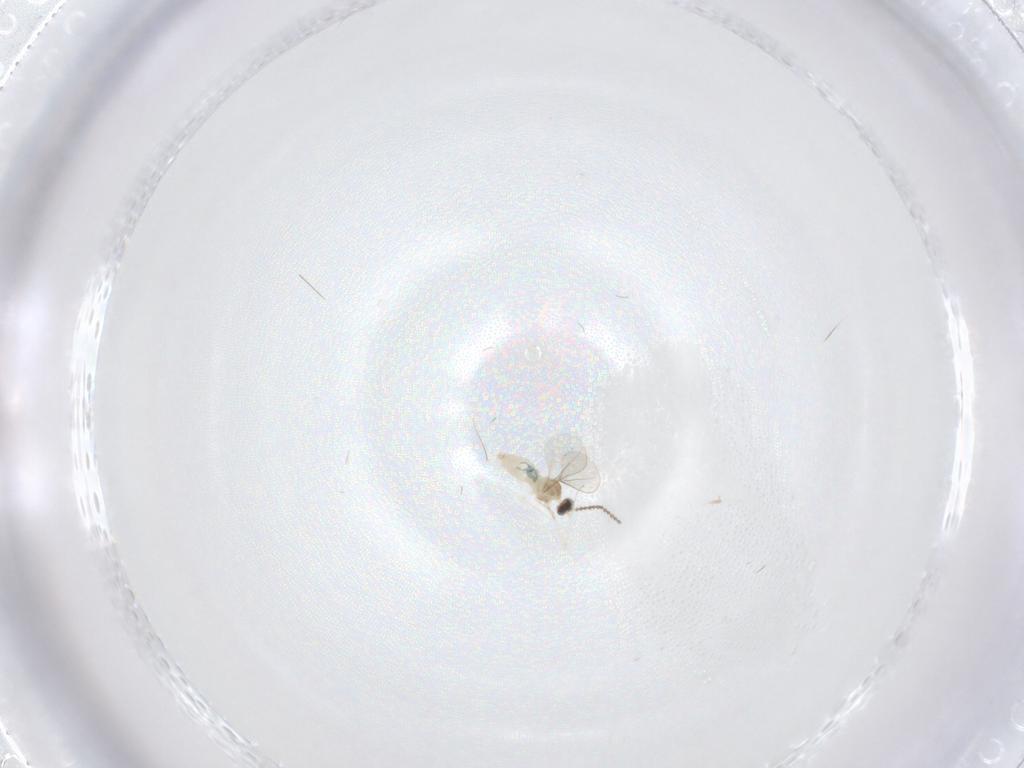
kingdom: Animalia
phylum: Arthropoda
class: Insecta
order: Diptera
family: Cecidomyiidae
